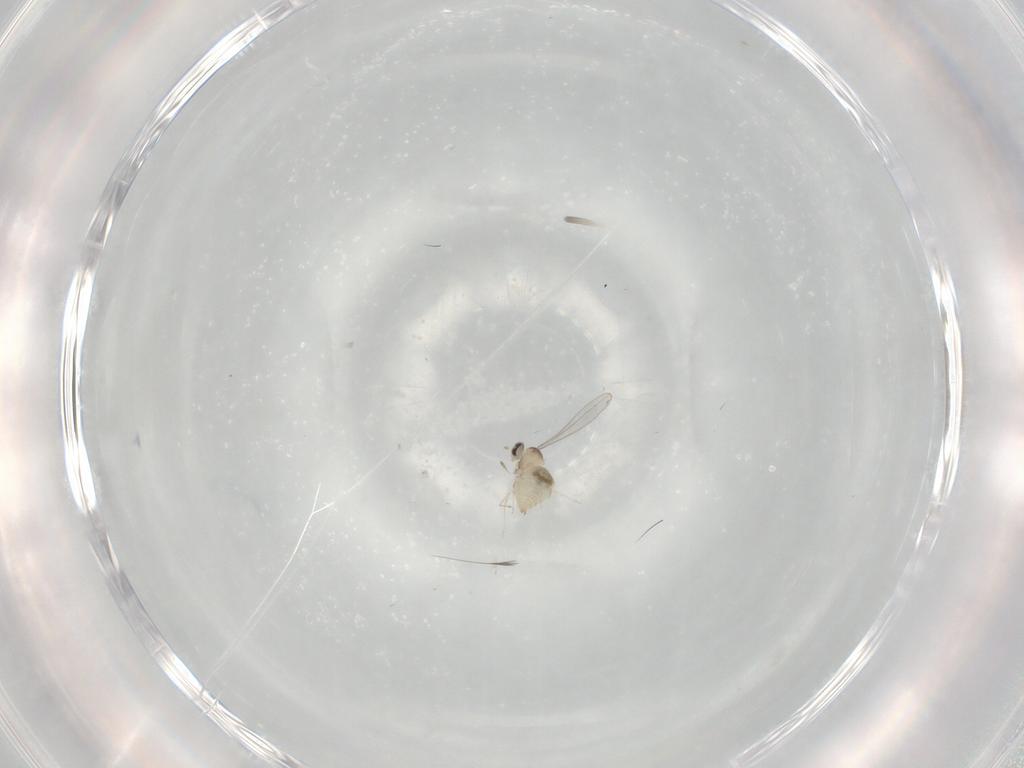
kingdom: Animalia
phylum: Arthropoda
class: Insecta
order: Diptera
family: Cecidomyiidae
